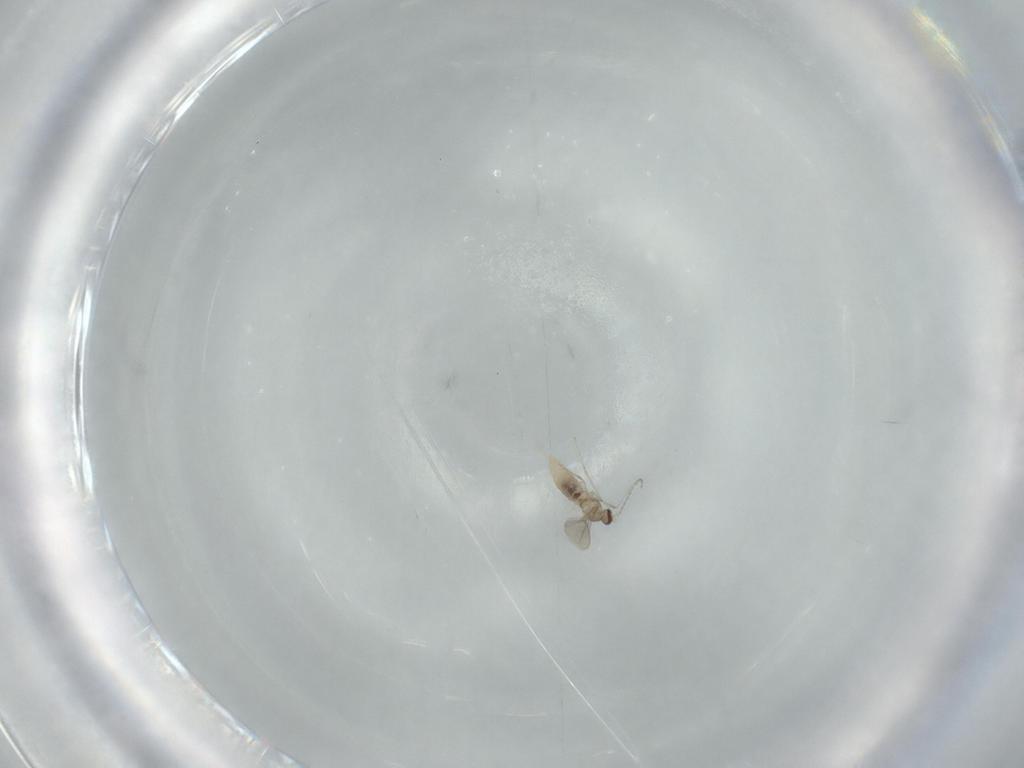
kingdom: Animalia
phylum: Arthropoda
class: Insecta
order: Diptera
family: Cecidomyiidae
